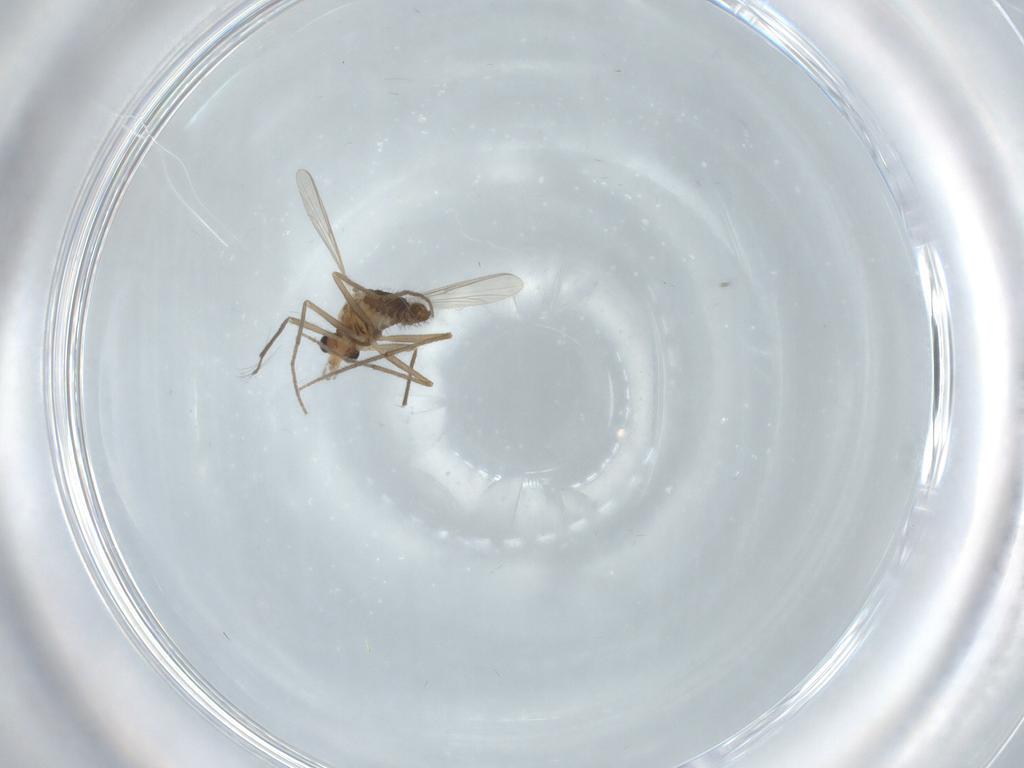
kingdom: Animalia
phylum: Arthropoda
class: Insecta
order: Diptera
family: Chironomidae
